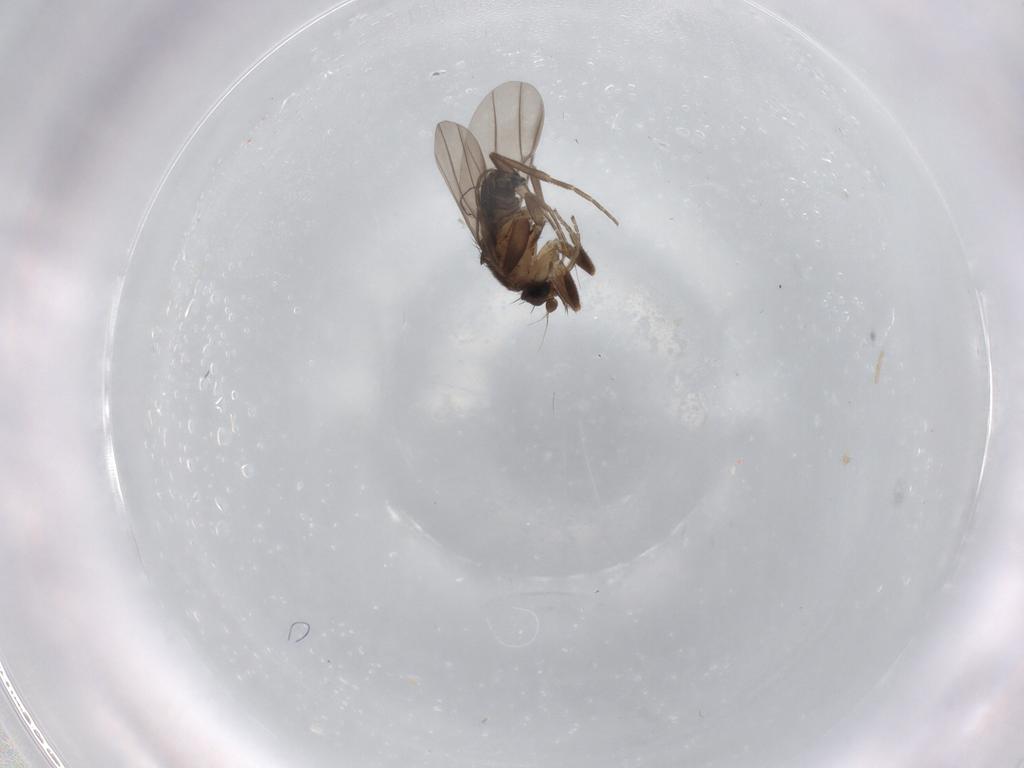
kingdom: Animalia
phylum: Arthropoda
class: Insecta
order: Diptera
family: Cecidomyiidae
